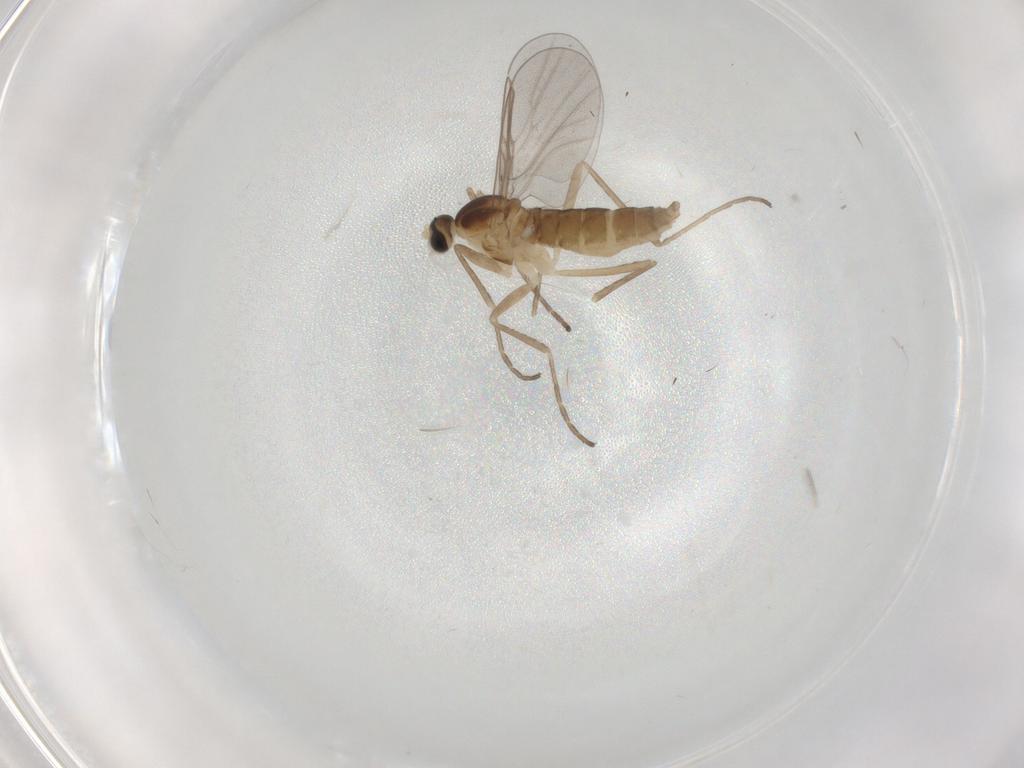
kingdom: Animalia
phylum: Arthropoda
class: Insecta
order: Diptera
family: Cecidomyiidae
